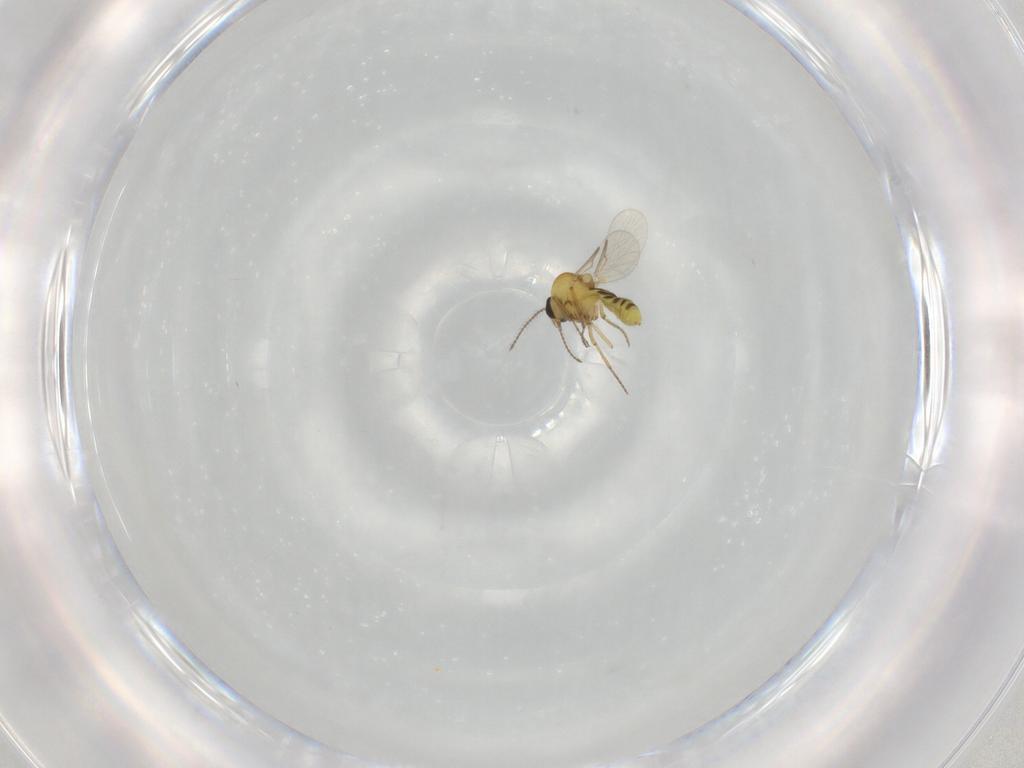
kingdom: Animalia
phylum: Arthropoda
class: Insecta
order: Diptera
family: Ceratopogonidae
